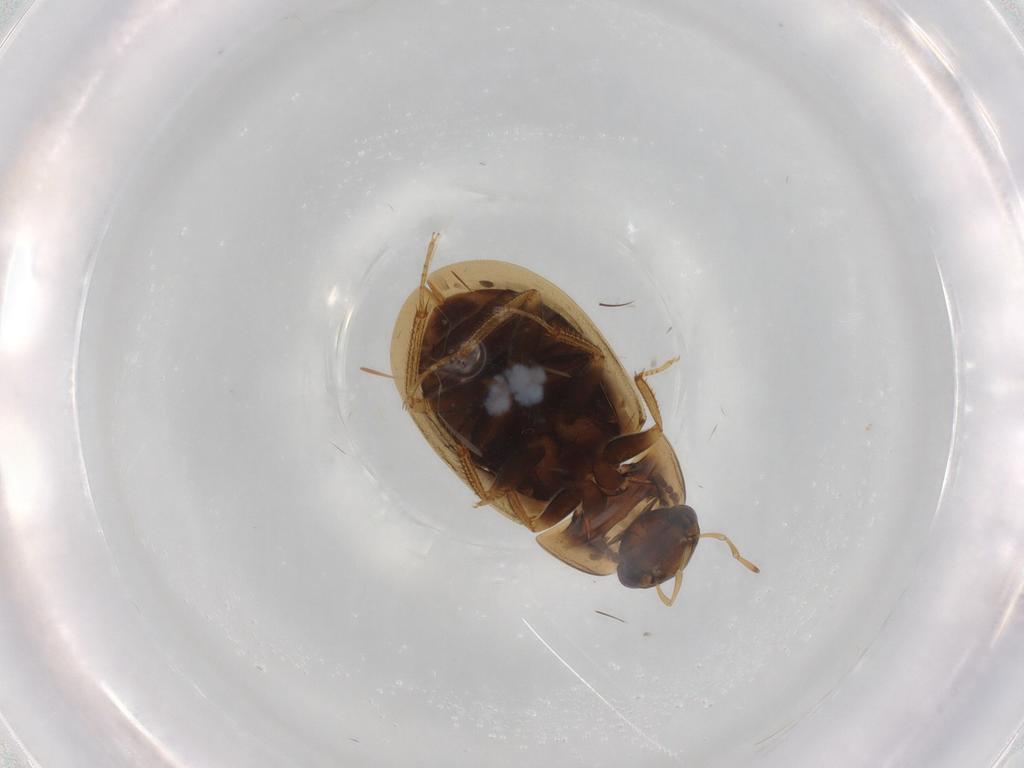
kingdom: Animalia
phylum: Arthropoda
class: Insecta
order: Coleoptera
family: Hydrophilidae
